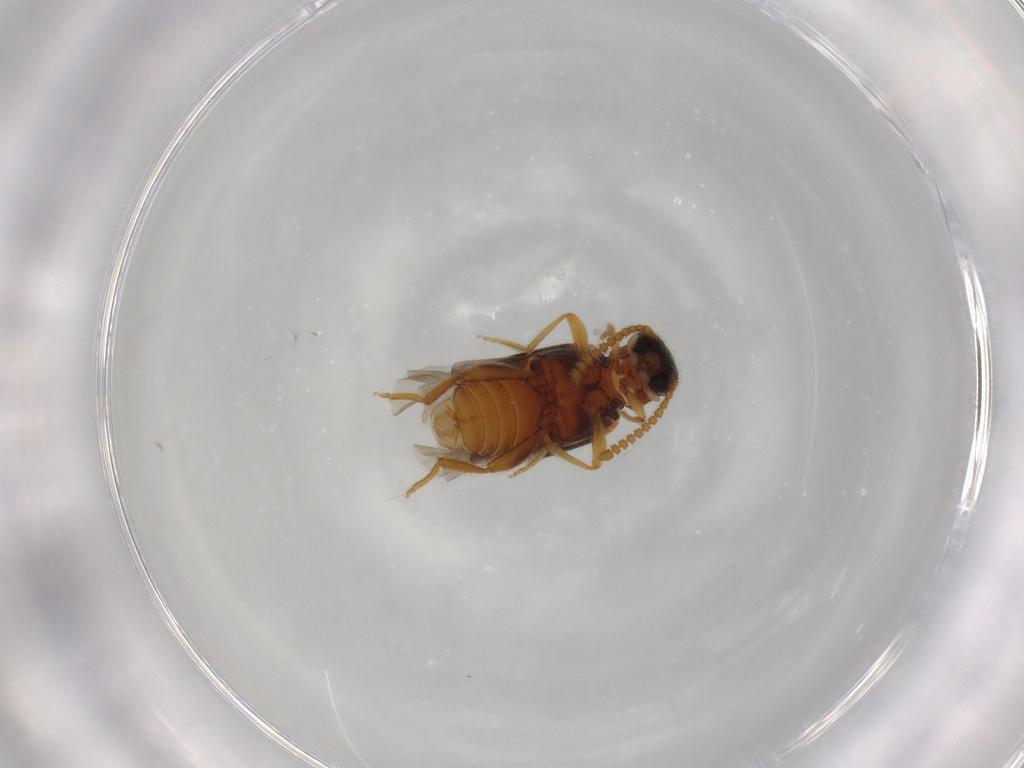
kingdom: Animalia
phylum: Arthropoda
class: Insecta
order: Coleoptera
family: Aderidae
